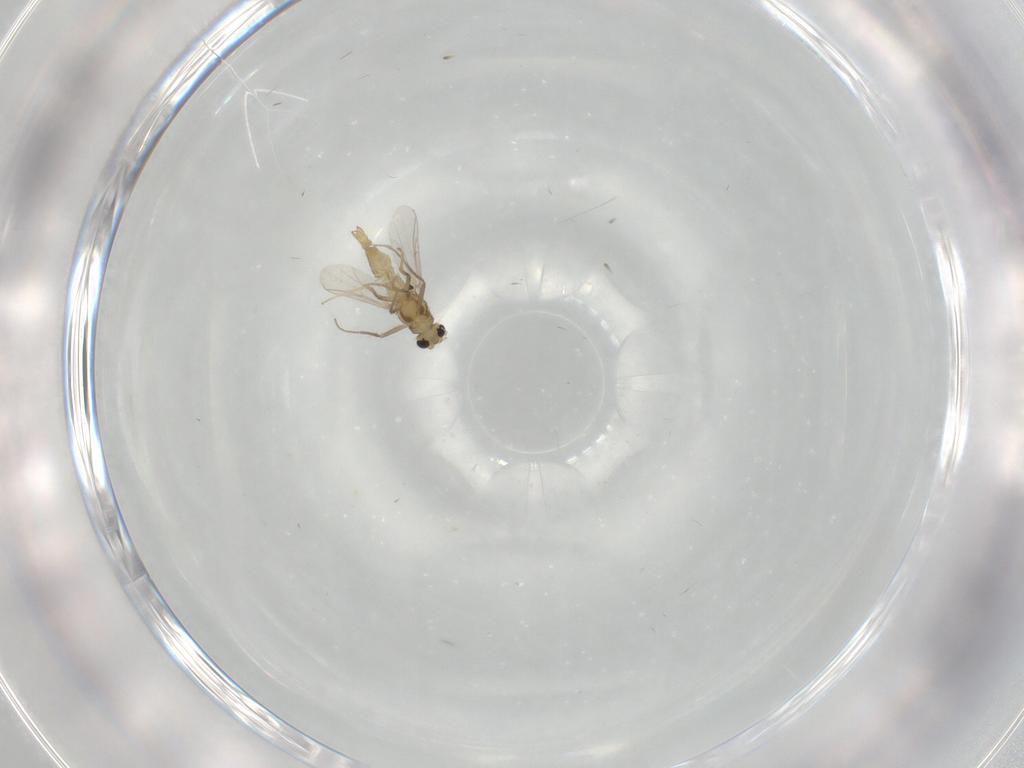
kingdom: Animalia
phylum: Arthropoda
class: Insecta
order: Diptera
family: Chironomidae
